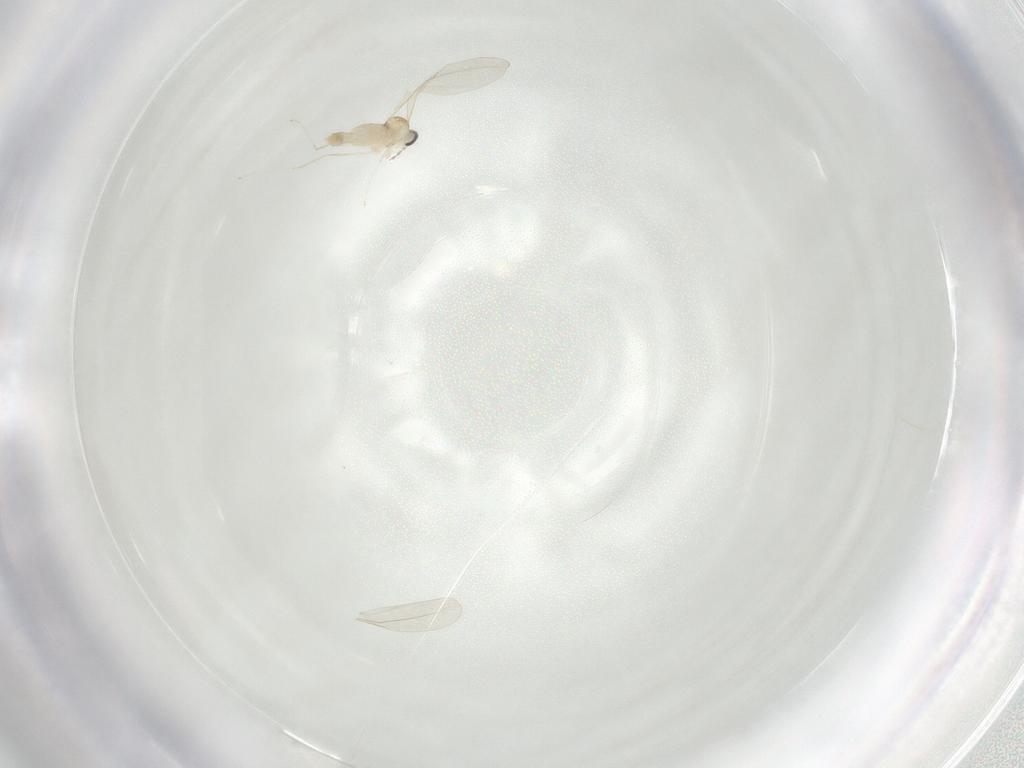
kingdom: Animalia
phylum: Arthropoda
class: Insecta
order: Diptera
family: Cecidomyiidae
